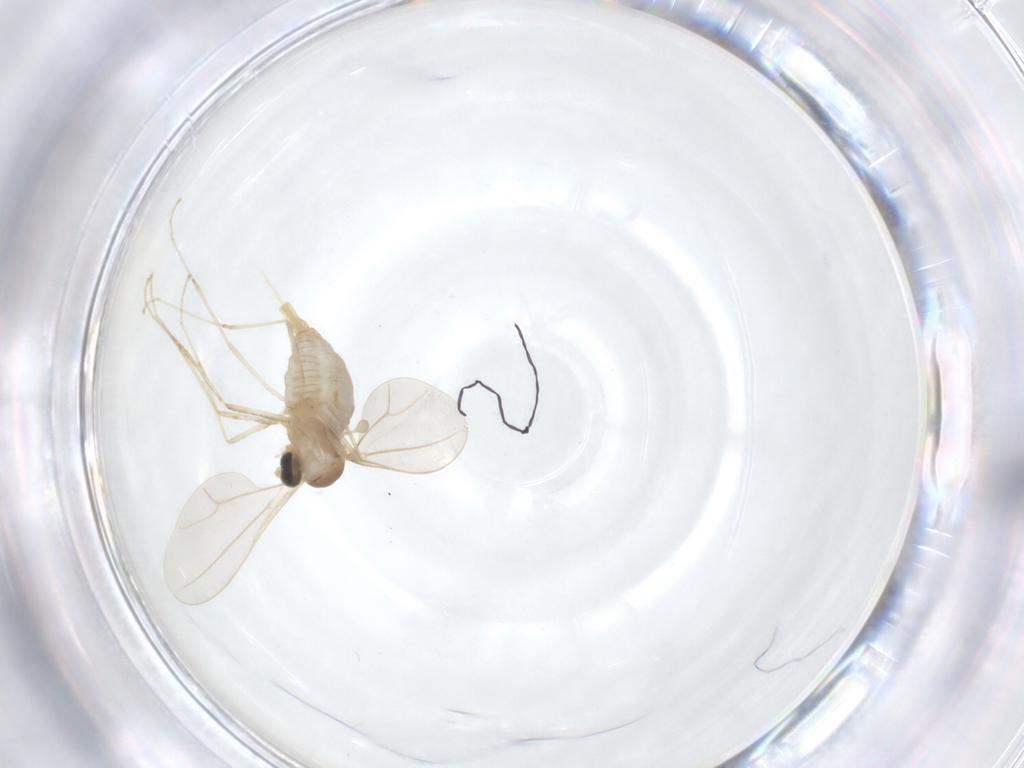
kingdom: Animalia
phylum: Arthropoda
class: Insecta
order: Diptera
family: Cecidomyiidae
